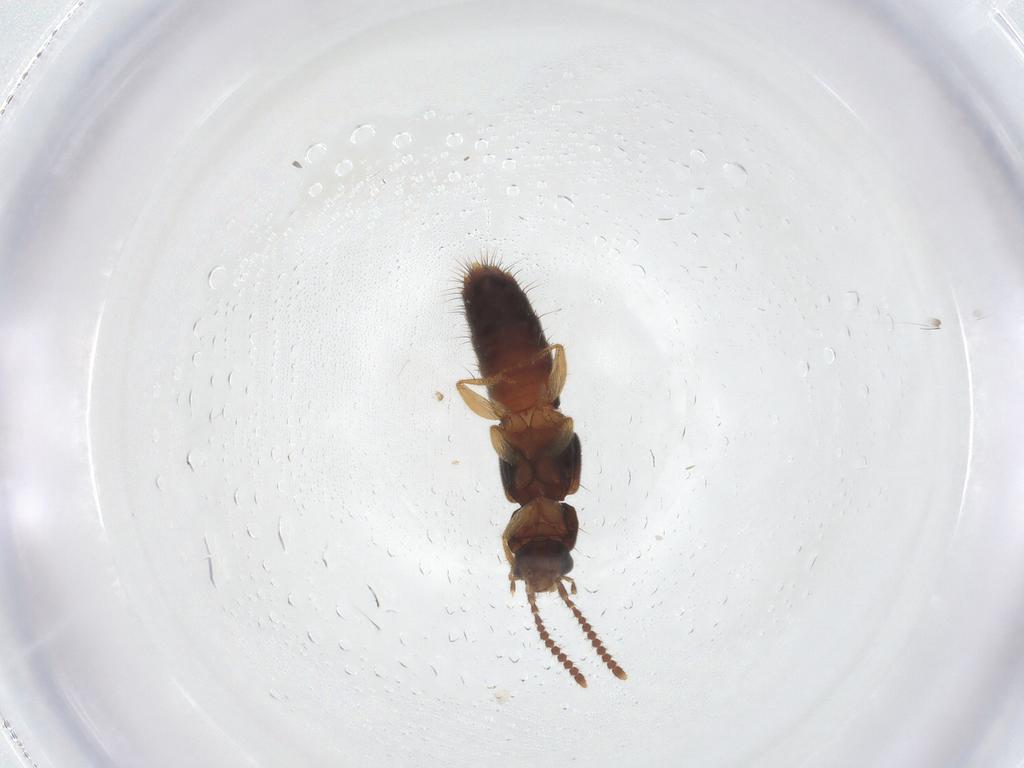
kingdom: Animalia
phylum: Arthropoda
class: Insecta
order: Coleoptera
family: Staphylinidae
